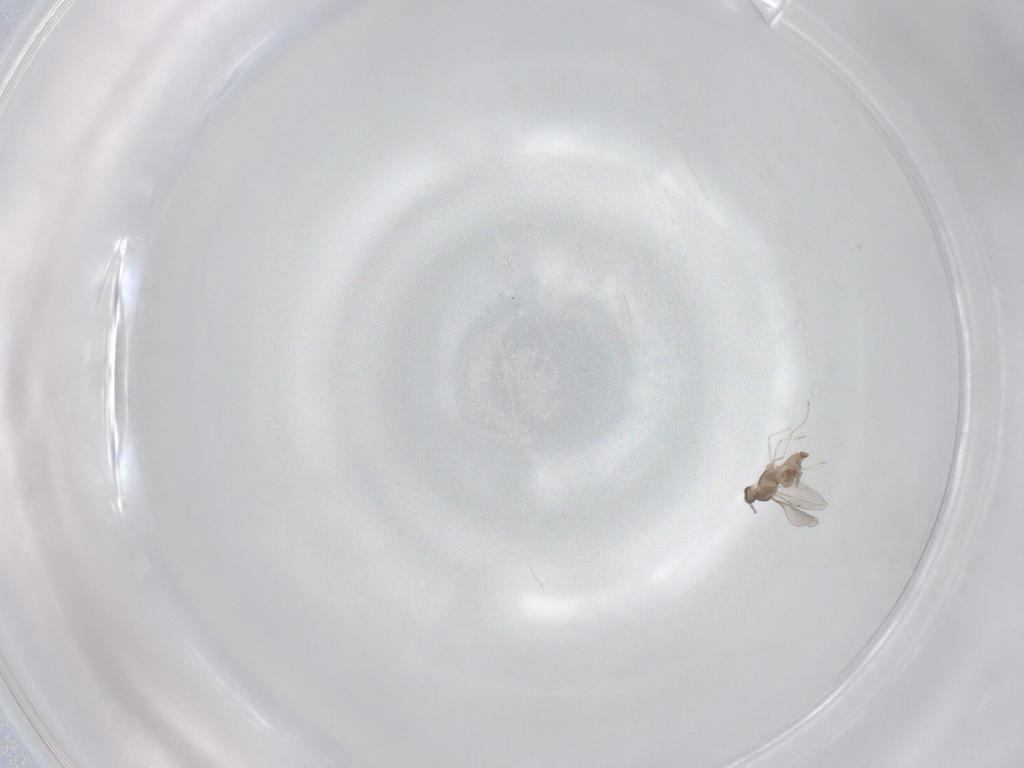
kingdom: Animalia
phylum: Arthropoda
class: Insecta
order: Diptera
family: Cecidomyiidae
